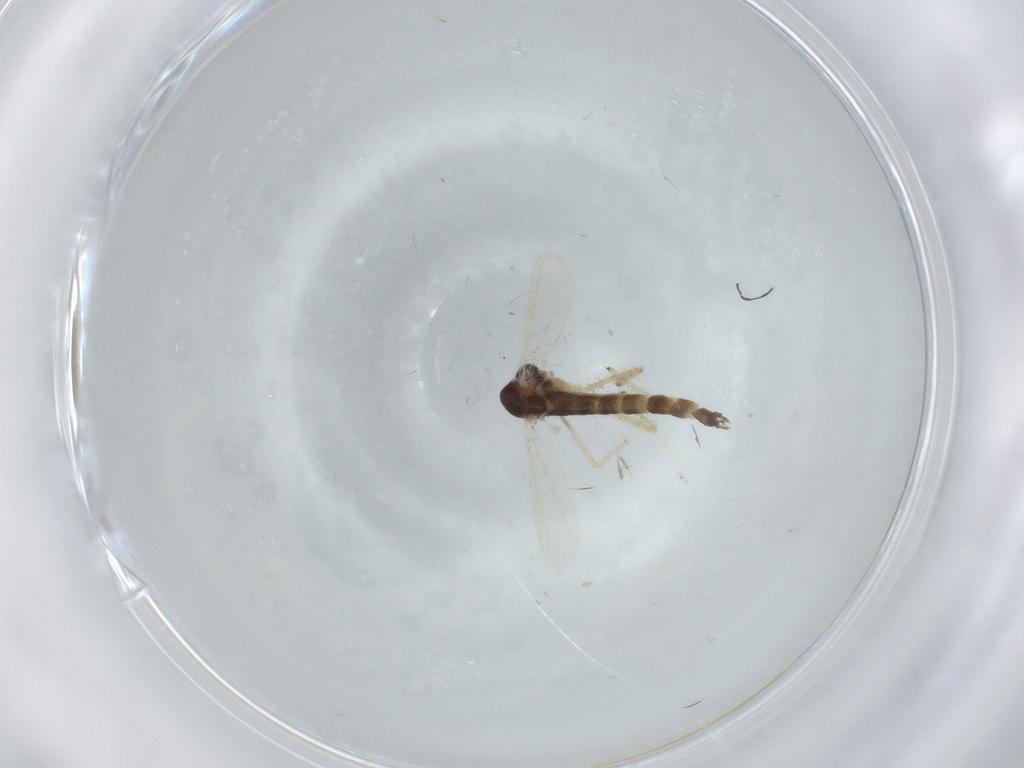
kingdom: Animalia
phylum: Arthropoda
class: Insecta
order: Diptera
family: Chironomidae
